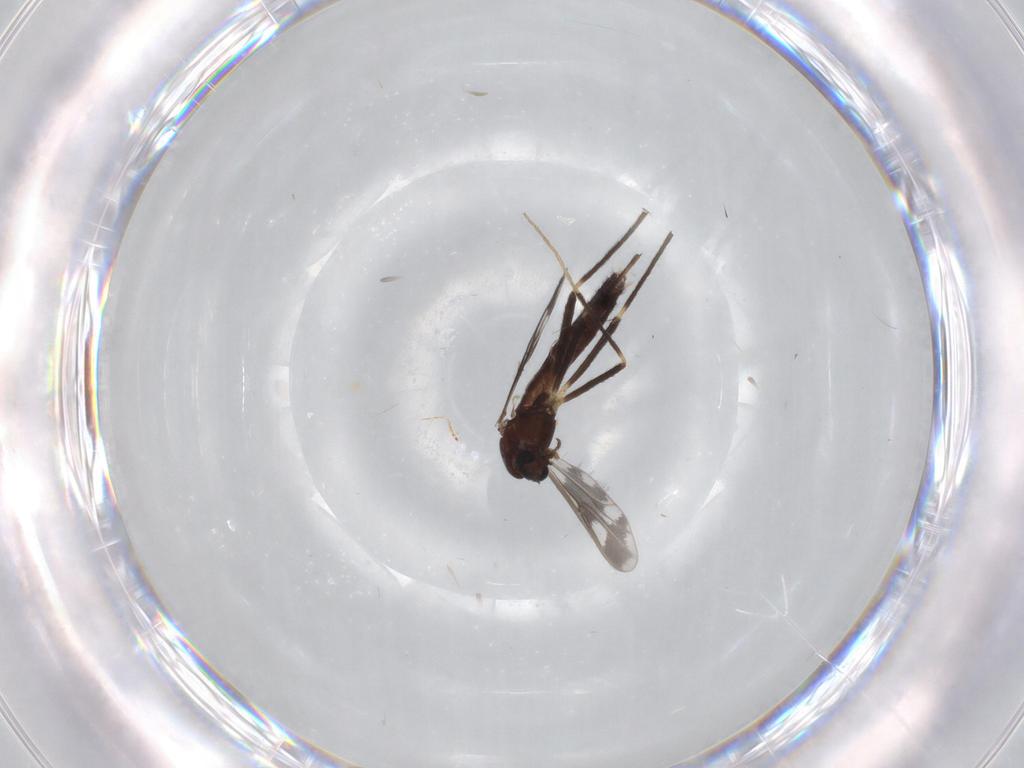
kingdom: Animalia
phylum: Arthropoda
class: Insecta
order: Diptera
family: Chironomidae
